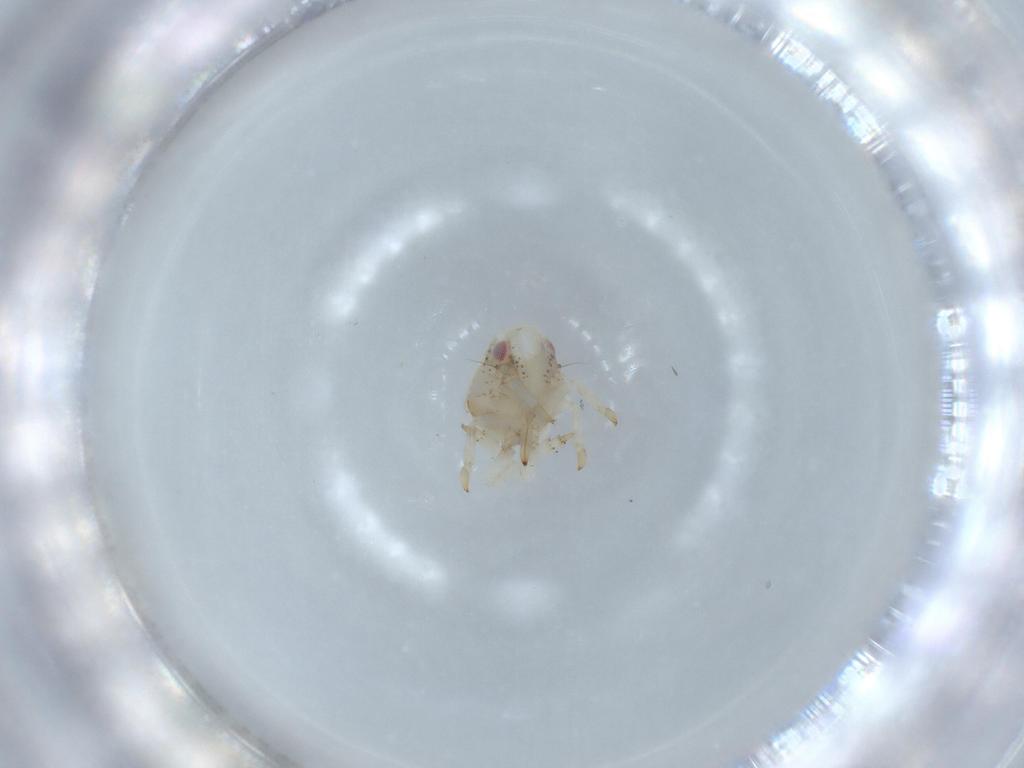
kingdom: Animalia
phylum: Arthropoda
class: Insecta
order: Hemiptera
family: Acanaloniidae
